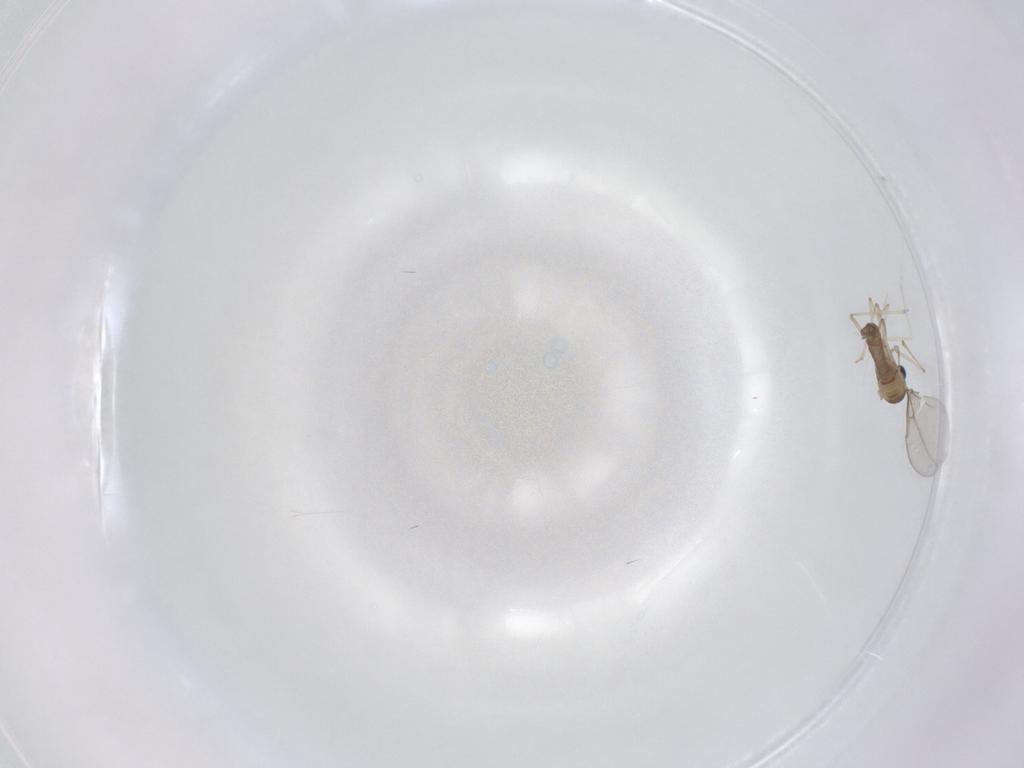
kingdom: Animalia
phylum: Arthropoda
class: Insecta
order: Diptera
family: Cecidomyiidae
